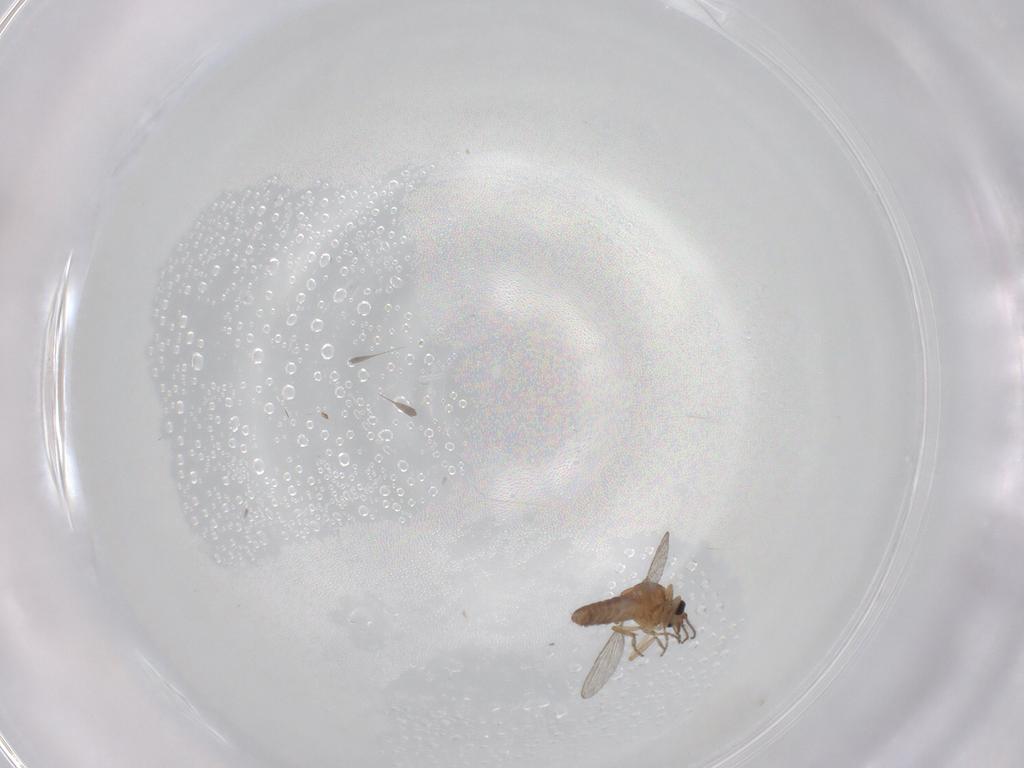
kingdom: Animalia
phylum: Arthropoda
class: Insecta
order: Diptera
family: Ceratopogonidae
